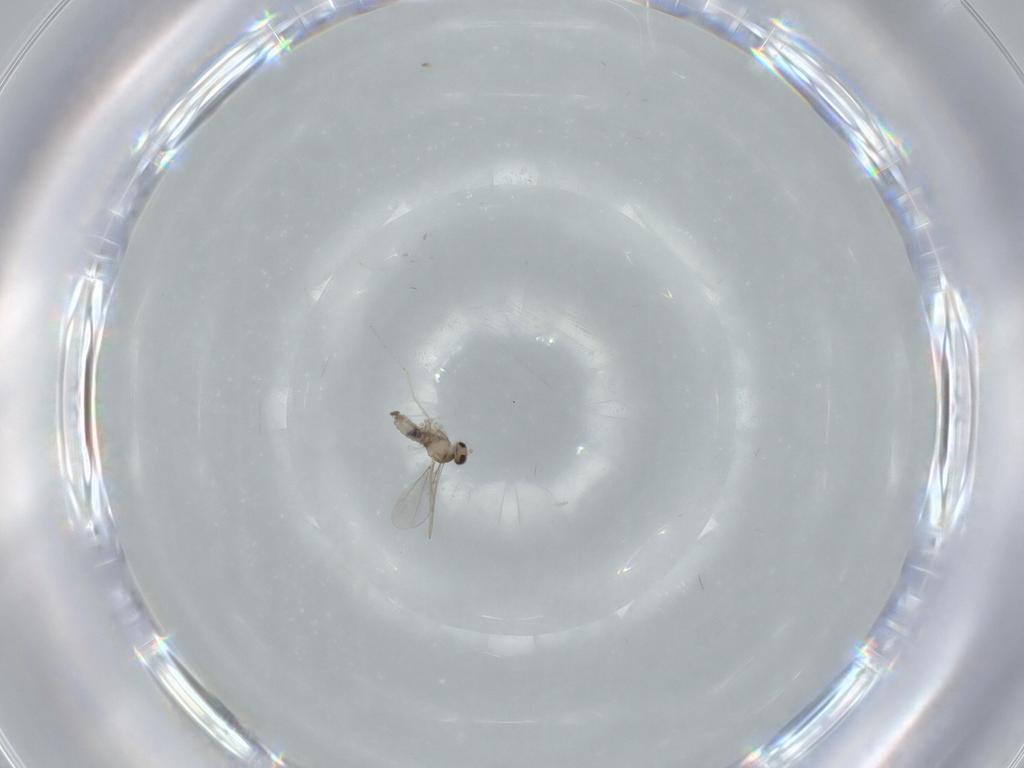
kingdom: Animalia
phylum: Arthropoda
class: Insecta
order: Diptera
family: Cecidomyiidae
